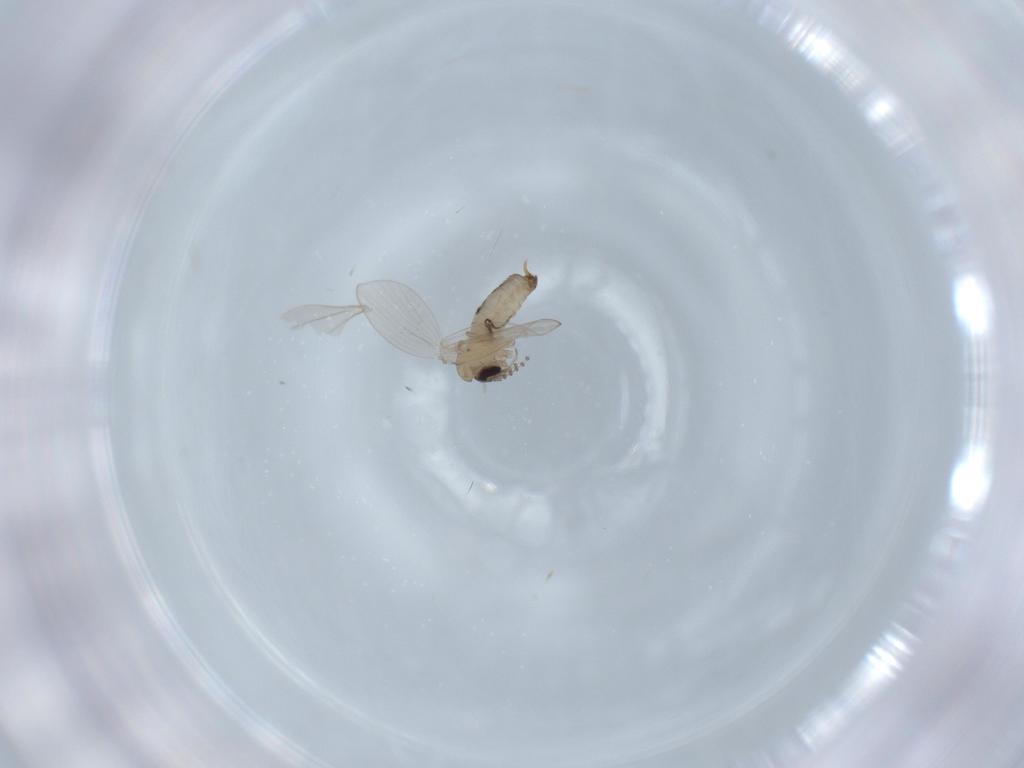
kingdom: Animalia
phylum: Arthropoda
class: Insecta
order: Diptera
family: Psychodidae
